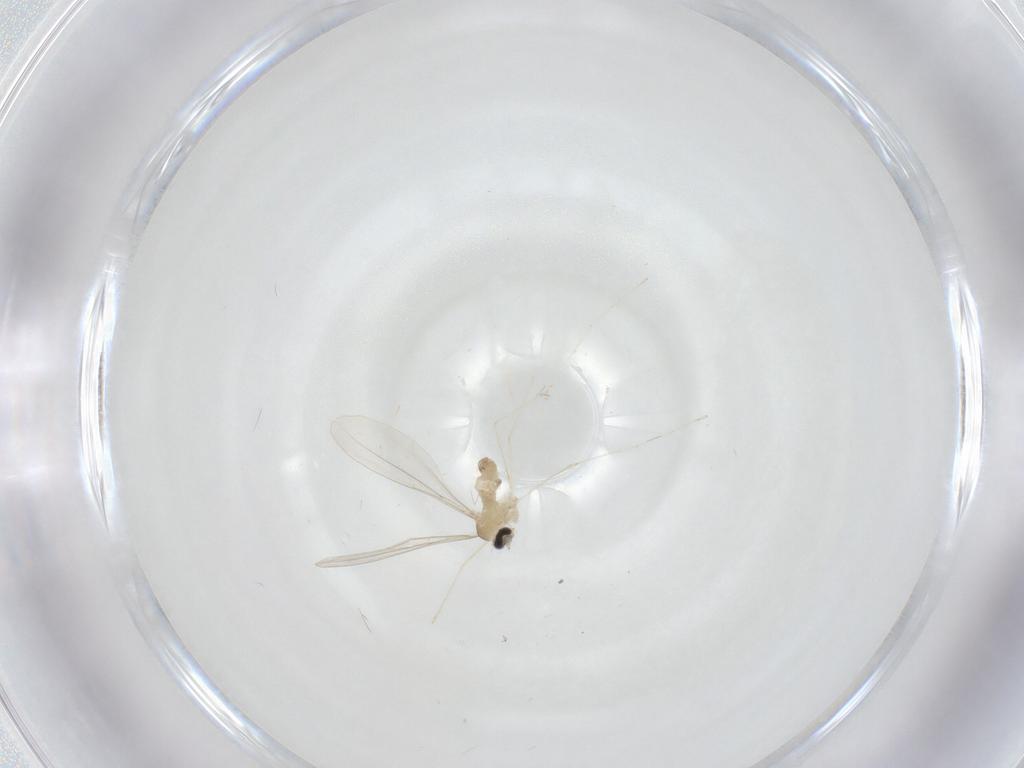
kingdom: Animalia
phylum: Arthropoda
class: Insecta
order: Diptera
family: Cecidomyiidae
